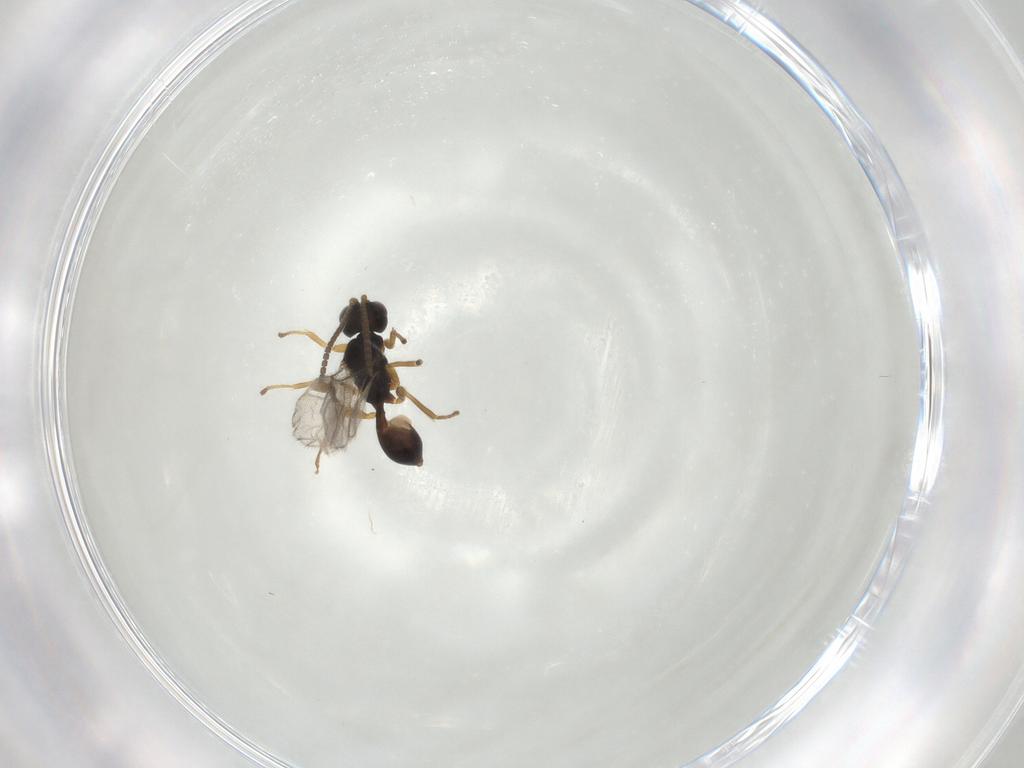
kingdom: Animalia
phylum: Arthropoda
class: Insecta
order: Hymenoptera
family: Braconidae
